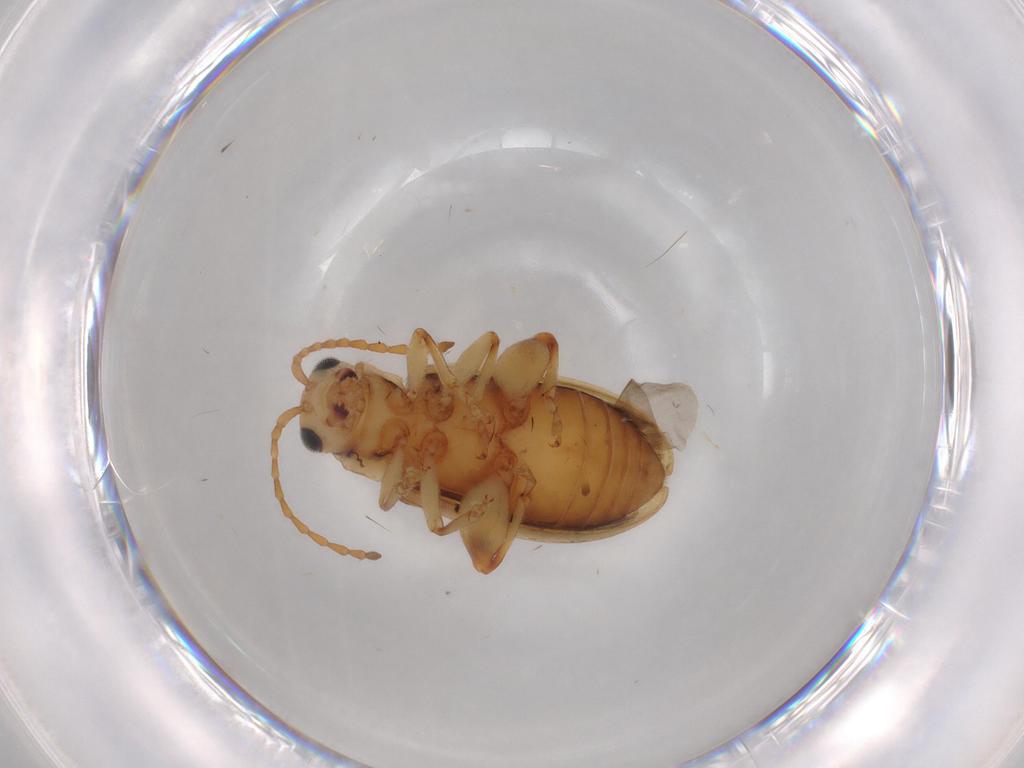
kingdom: Animalia
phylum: Arthropoda
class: Insecta
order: Coleoptera
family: Chrysomelidae
